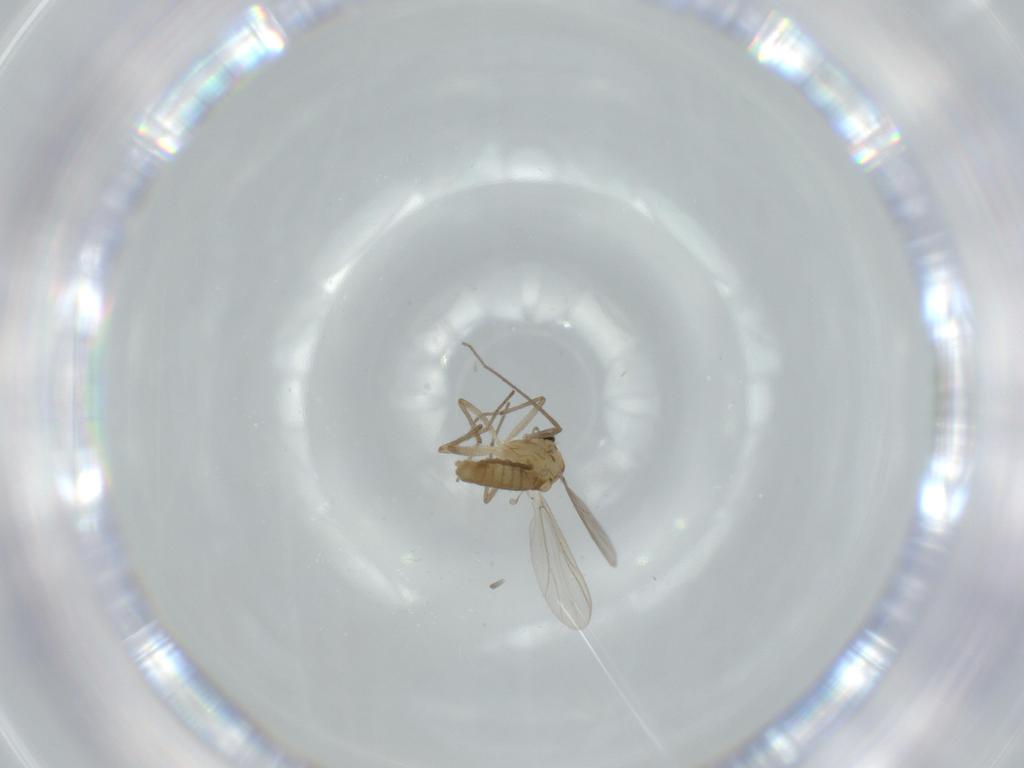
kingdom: Animalia
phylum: Arthropoda
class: Insecta
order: Diptera
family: Chironomidae
